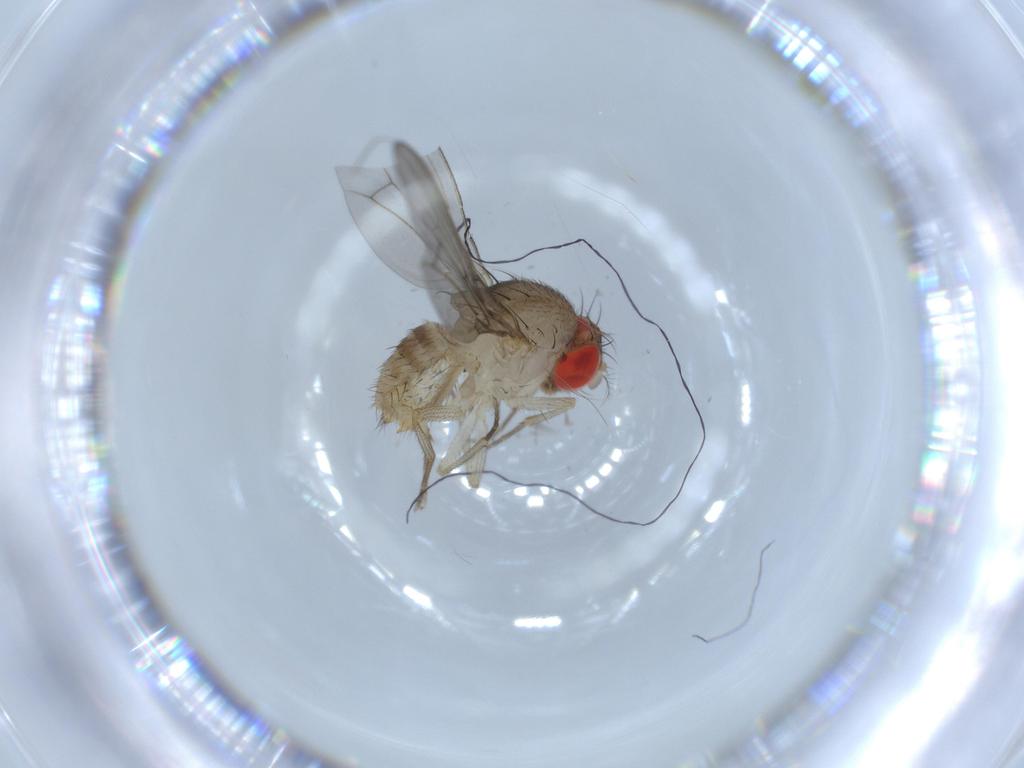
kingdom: Animalia
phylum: Arthropoda
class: Insecta
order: Diptera
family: Drosophilidae
